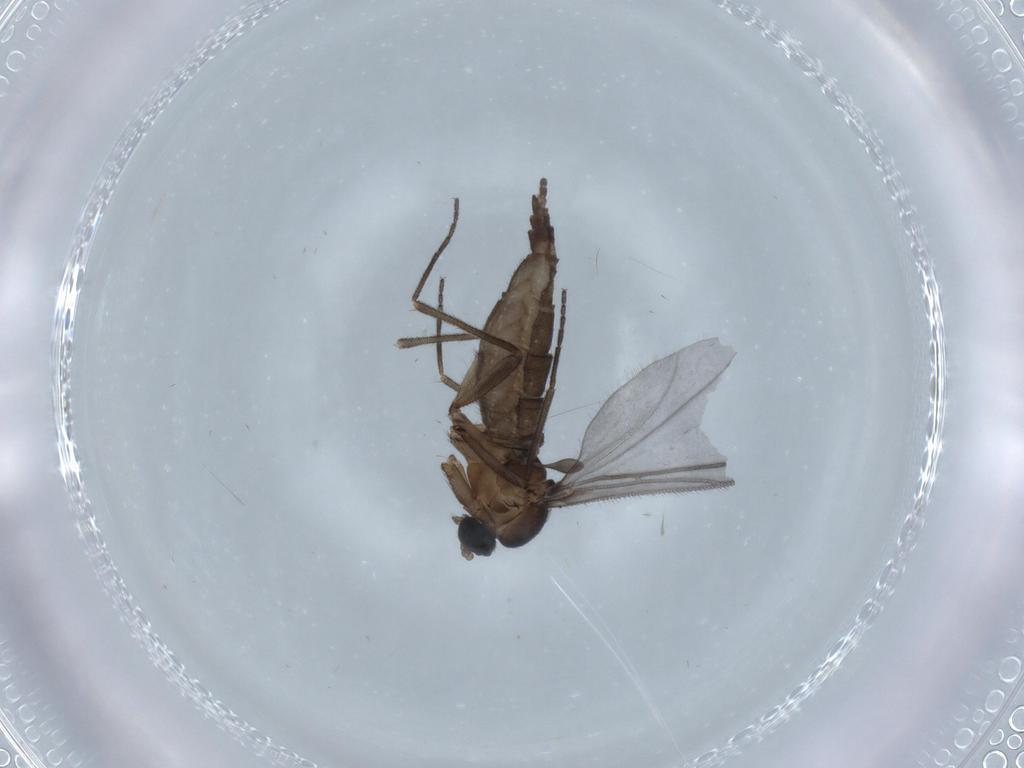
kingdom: Animalia
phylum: Arthropoda
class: Insecta
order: Diptera
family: Sciaridae
